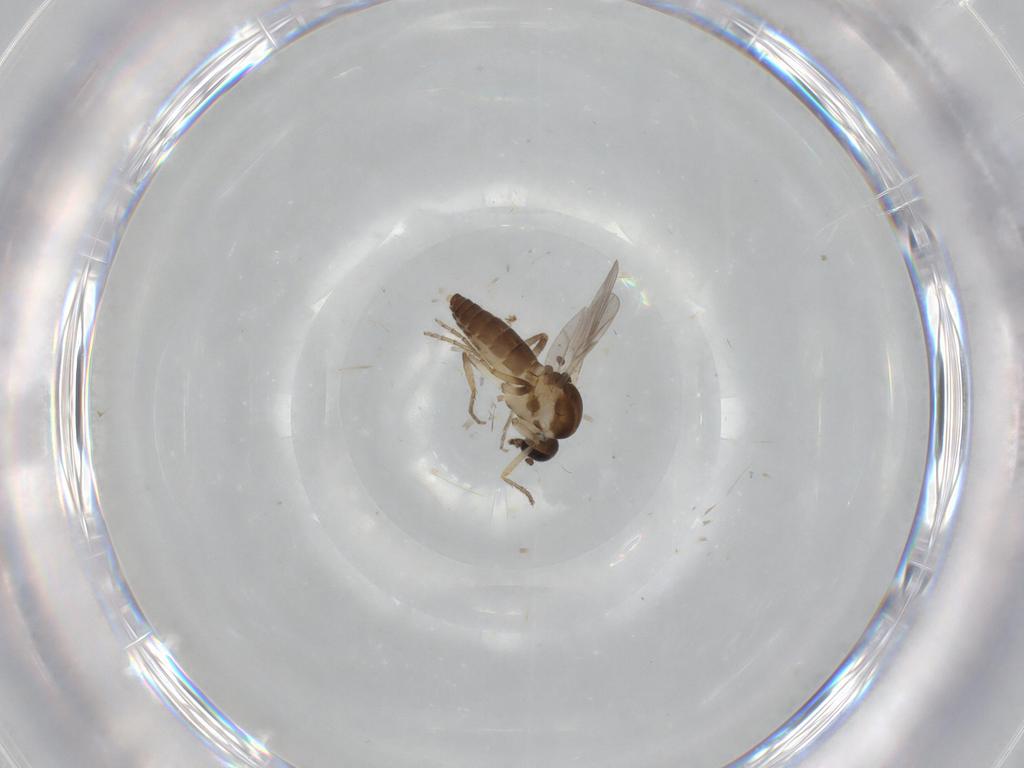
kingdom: Animalia
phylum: Arthropoda
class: Insecta
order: Diptera
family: Ceratopogonidae
